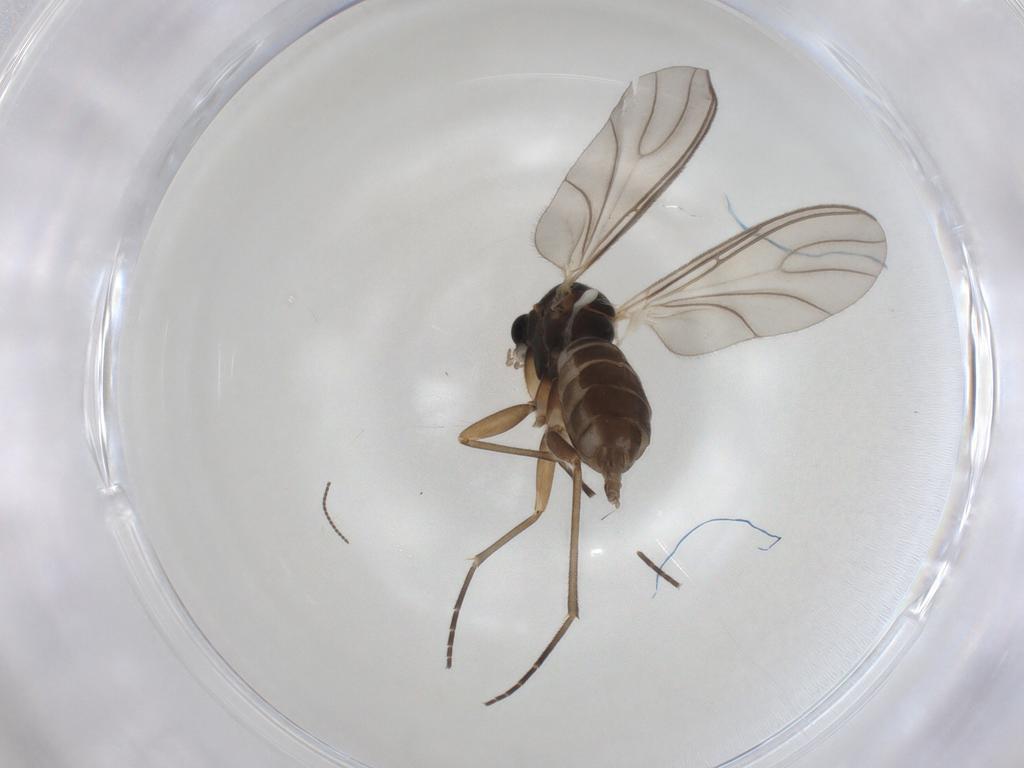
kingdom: Animalia
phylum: Arthropoda
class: Insecta
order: Diptera
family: Sciaridae
